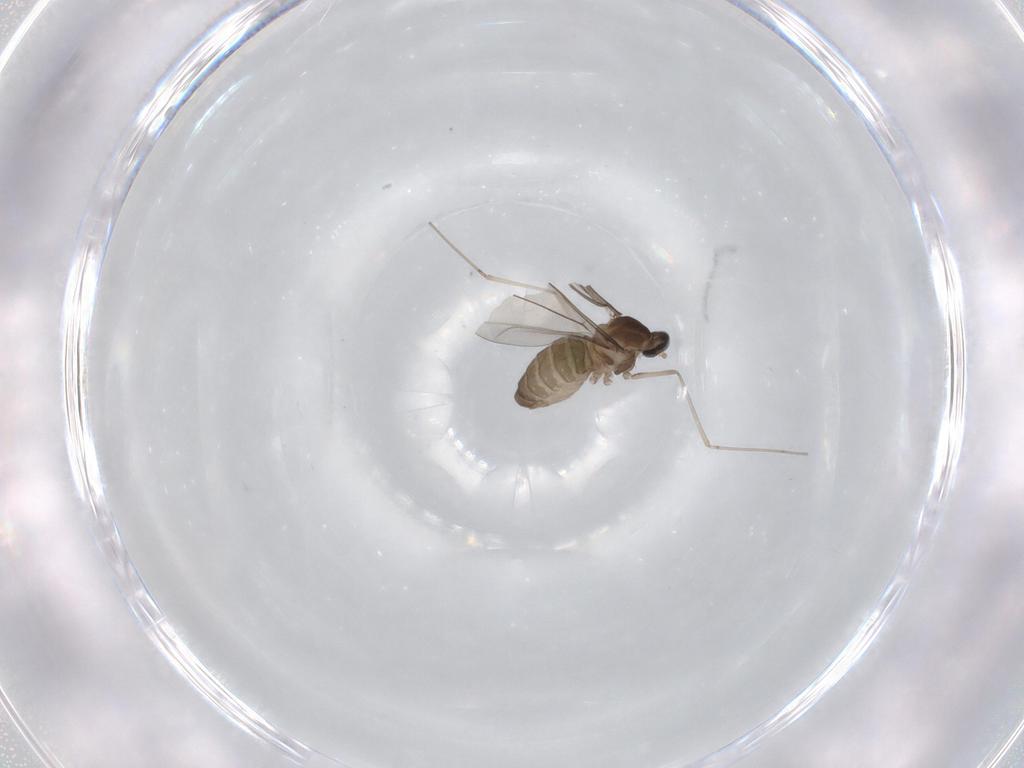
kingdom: Animalia
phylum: Arthropoda
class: Insecta
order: Diptera
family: Cecidomyiidae
